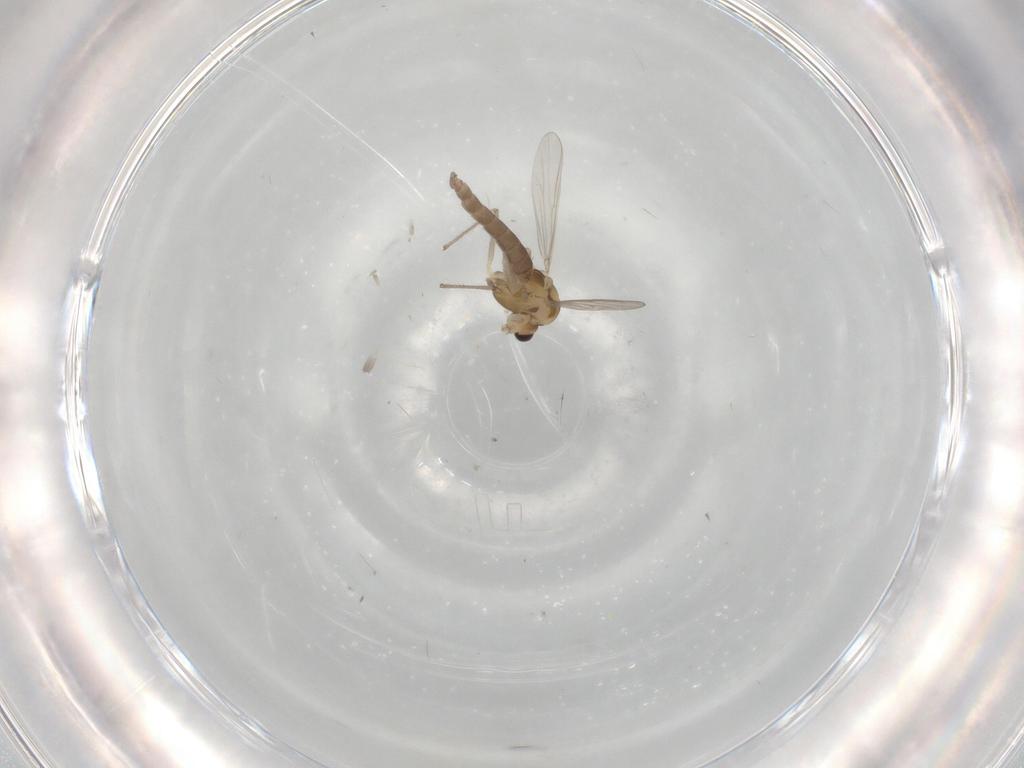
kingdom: Animalia
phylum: Arthropoda
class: Insecta
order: Diptera
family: Chironomidae
